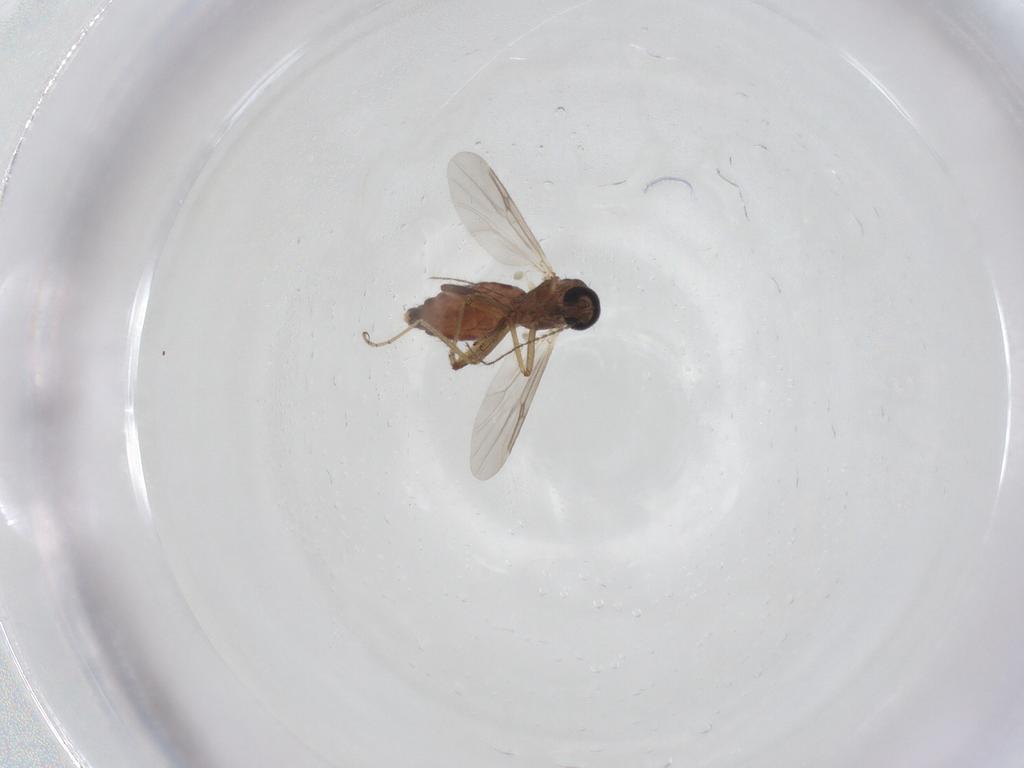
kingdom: Animalia
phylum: Arthropoda
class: Insecta
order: Diptera
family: Ceratopogonidae
